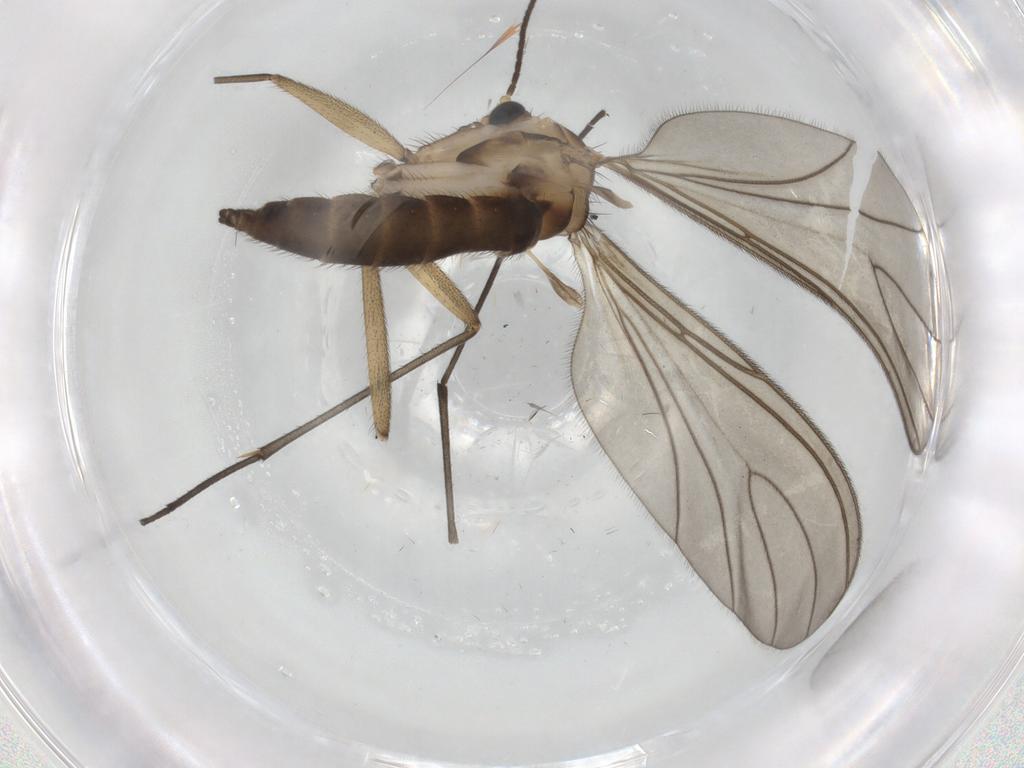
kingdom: Animalia
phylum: Arthropoda
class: Insecta
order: Diptera
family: Sciaridae
